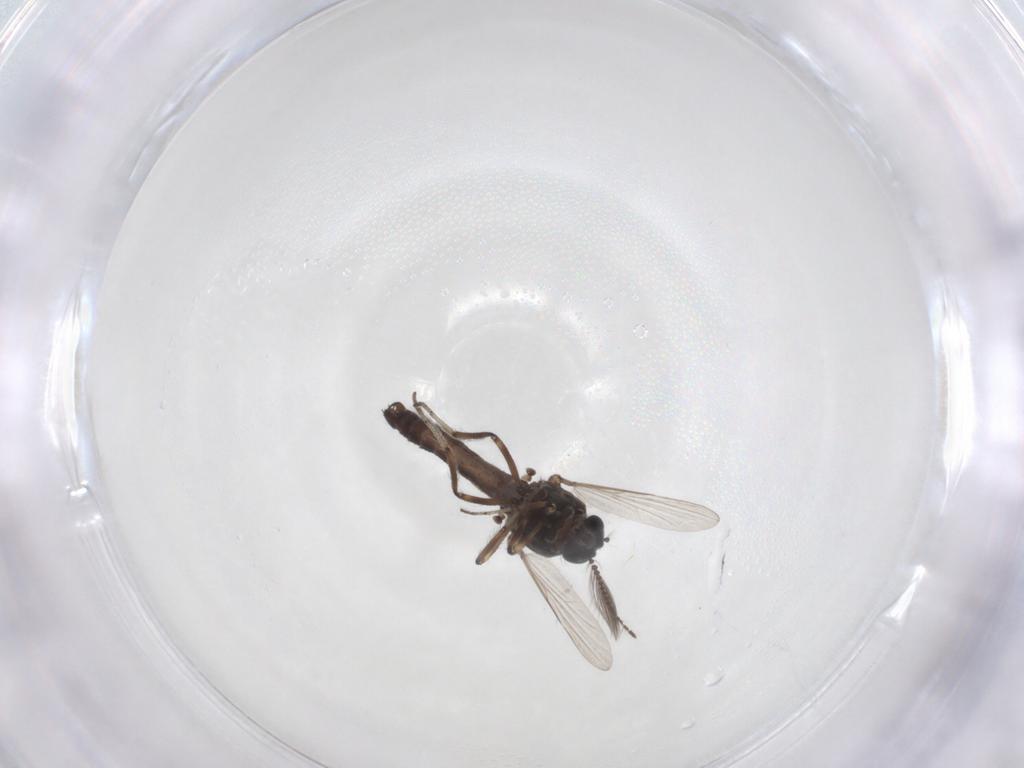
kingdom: Animalia
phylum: Arthropoda
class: Insecta
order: Diptera
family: Ceratopogonidae
